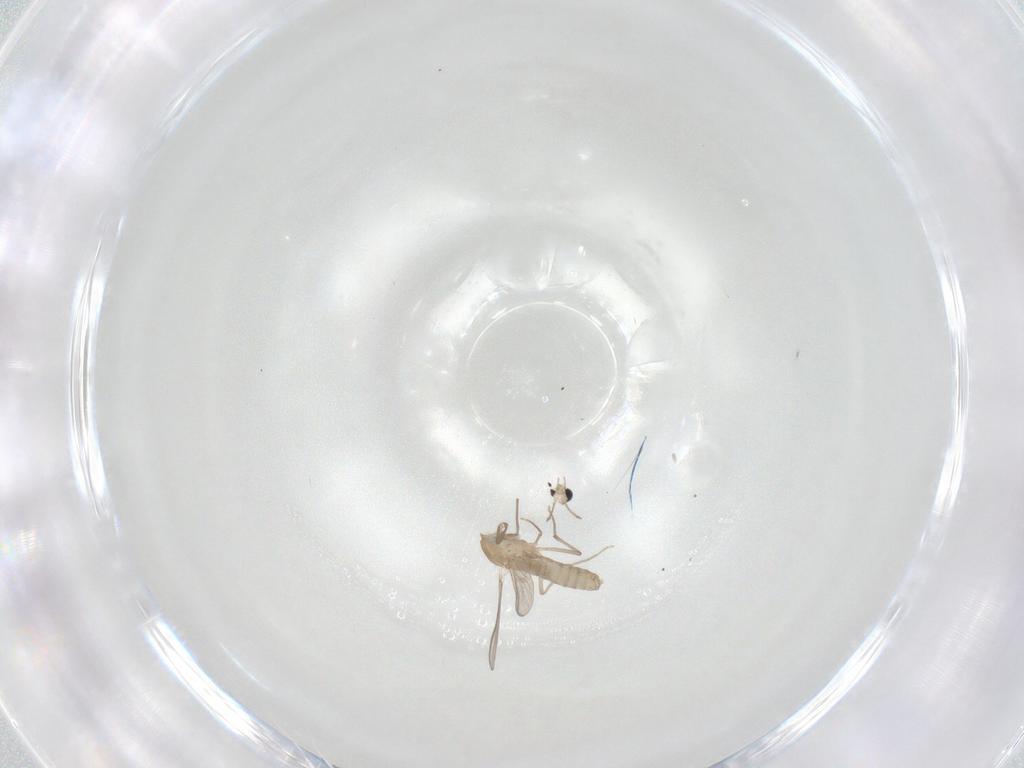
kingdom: Animalia
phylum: Arthropoda
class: Insecta
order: Diptera
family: Chironomidae
